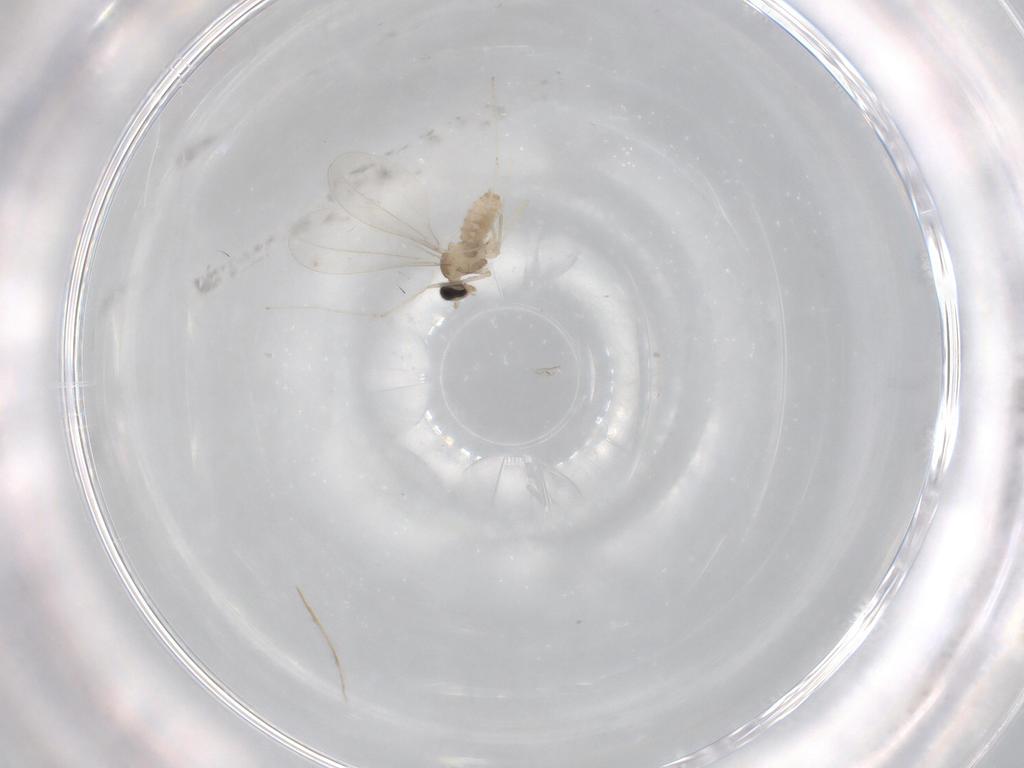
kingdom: Animalia
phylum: Arthropoda
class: Insecta
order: Diptera
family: Cecidomyiidae
